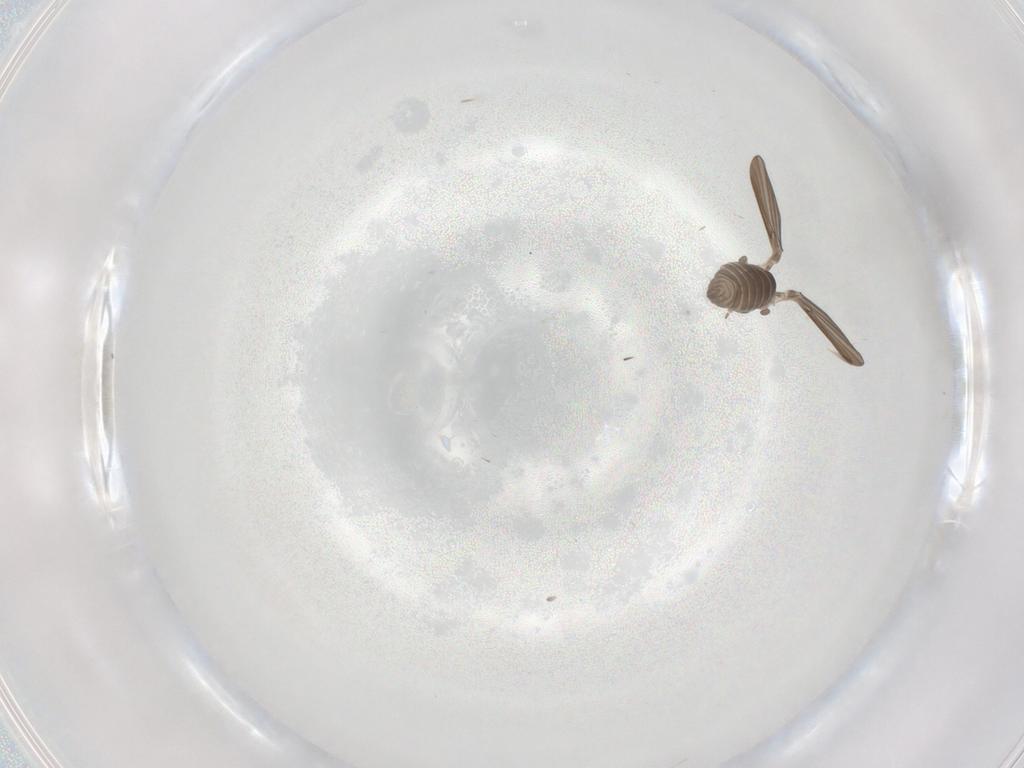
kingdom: Animalia
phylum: Arthropoda
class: Insecta
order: Diptera
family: Psychodidae
